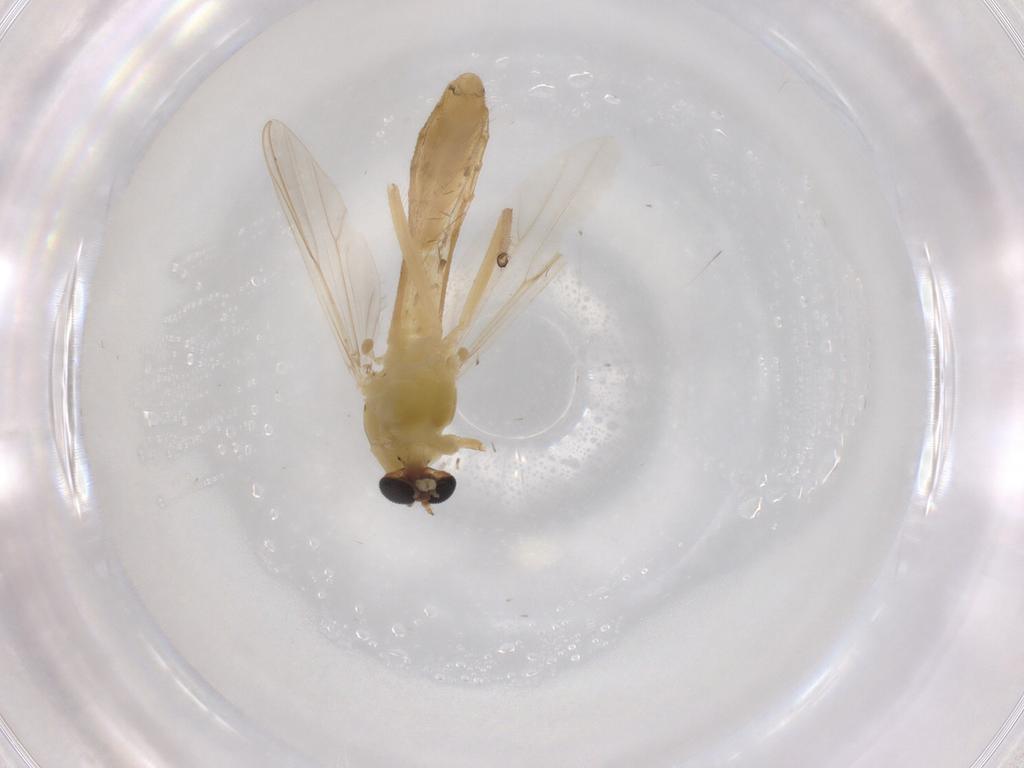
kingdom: Animalia
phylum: Arthropoda
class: Insecta
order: Diptera
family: Chironomidae
